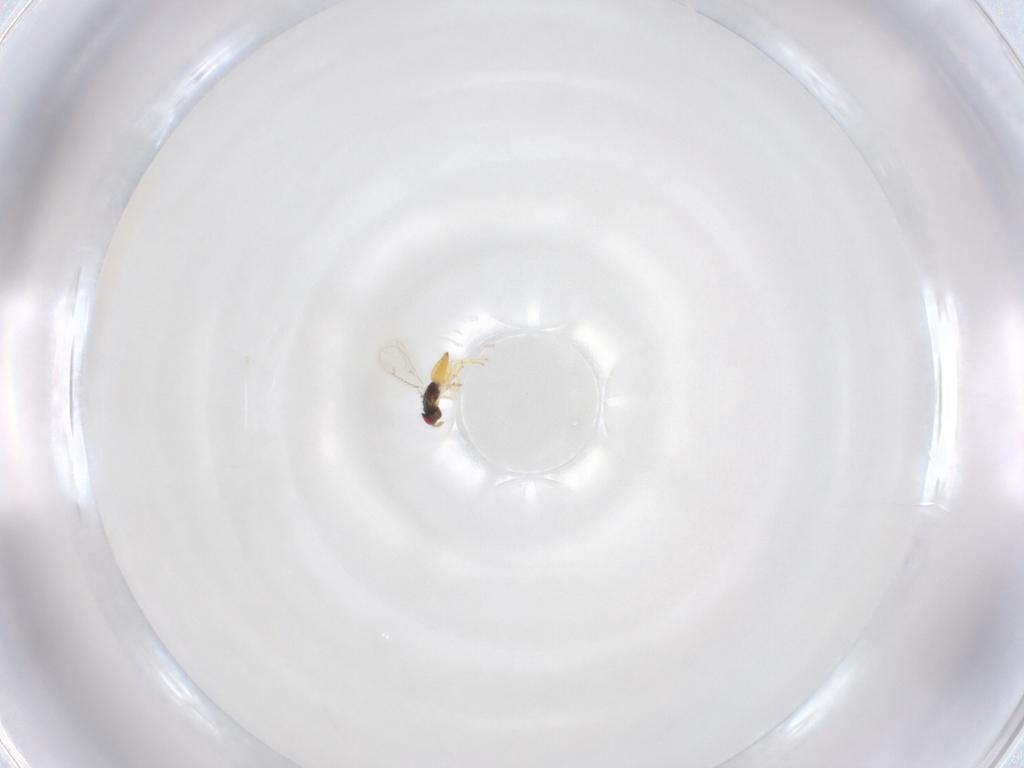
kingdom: Animalia
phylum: Arthropoda
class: Insecta
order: Hymenoptera
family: Eulophidae
